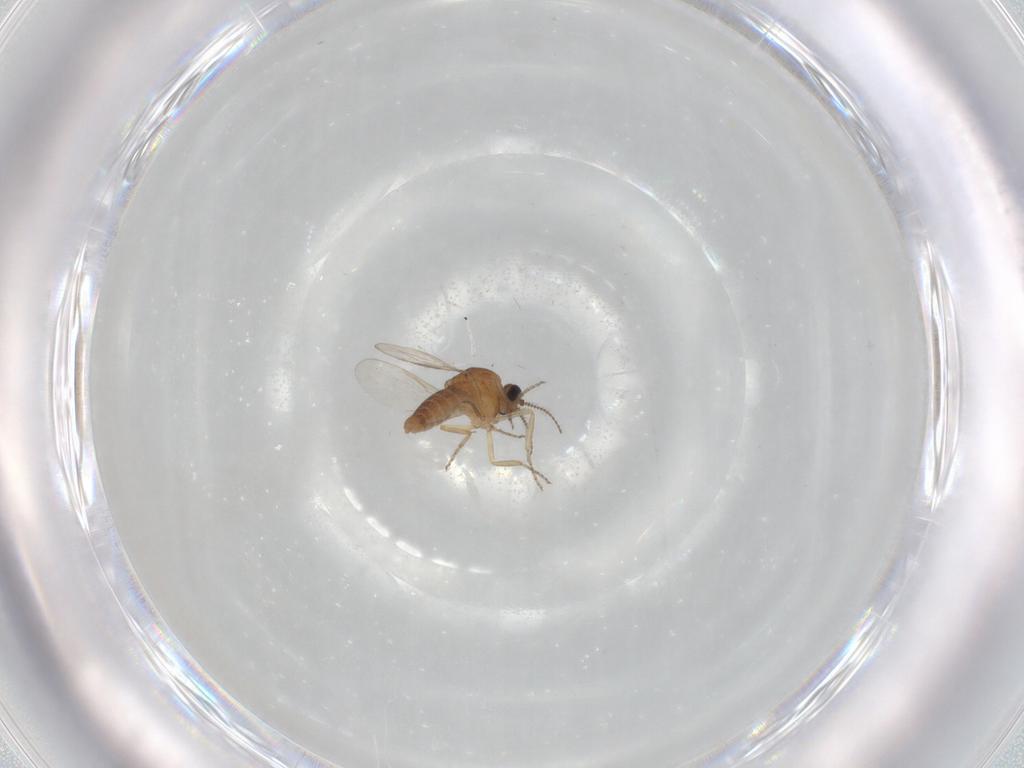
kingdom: Animalia
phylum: Arthropoda
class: Insecta
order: Diptera
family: Ceratopogonidae
